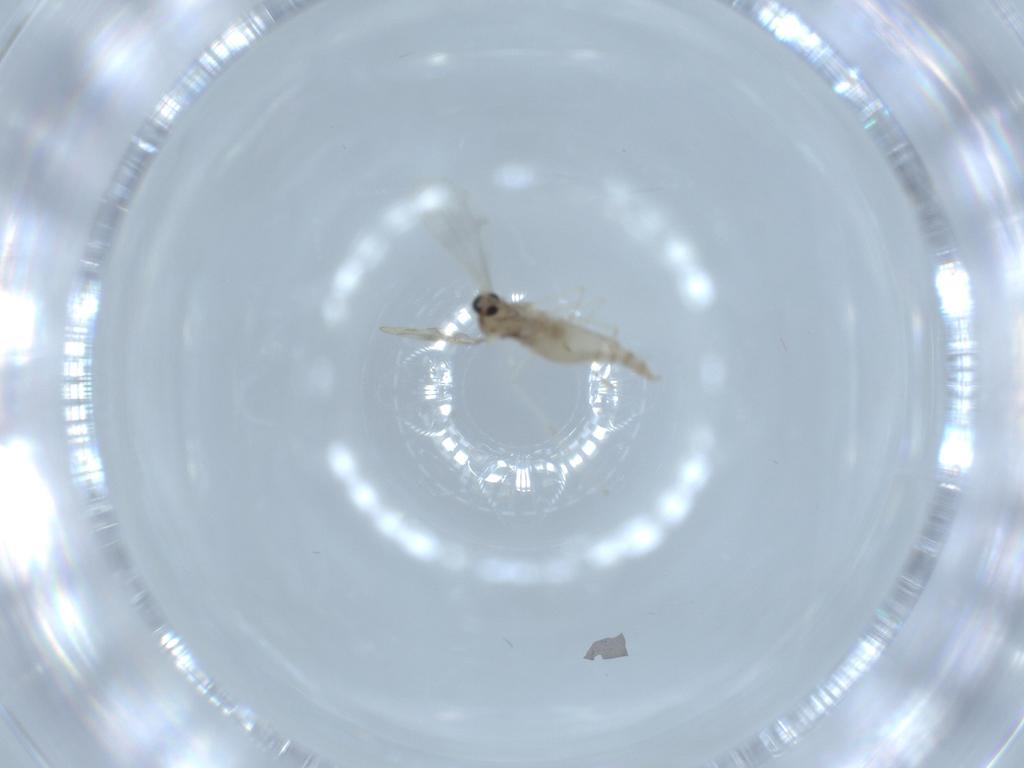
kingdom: Animalia
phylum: Arthropoda
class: Insecta
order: Diptera
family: Cecidomyiidae
